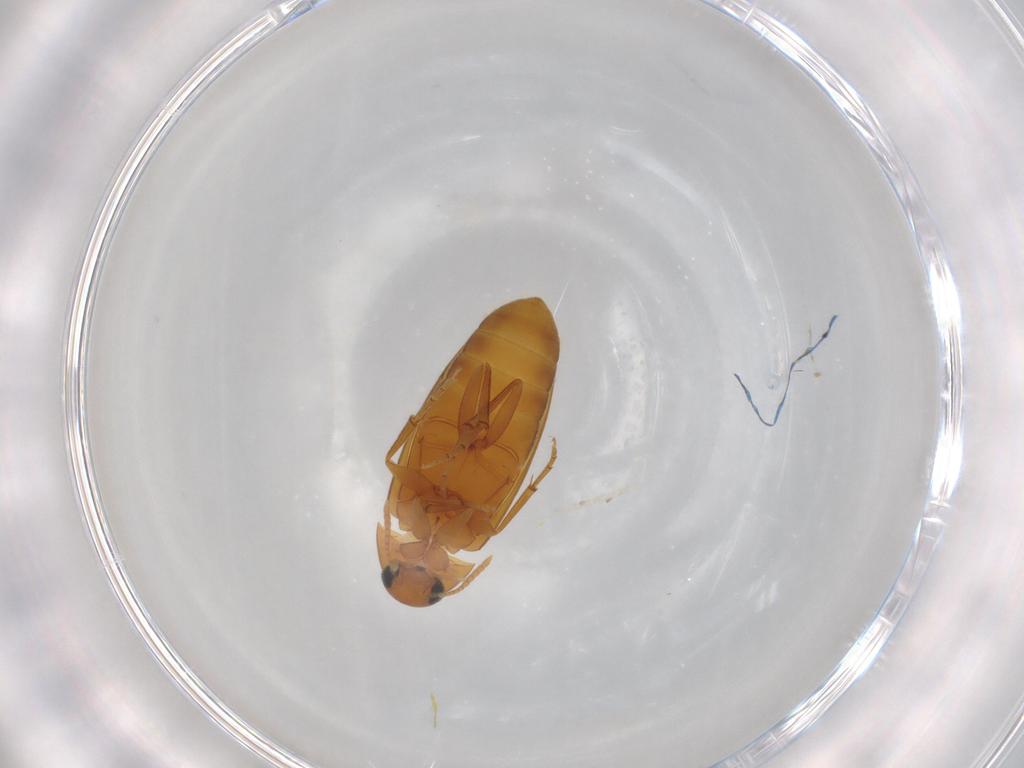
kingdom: Animalia
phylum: Arthropoda
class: Insecta
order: Coleoptera
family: Scraptiidae
